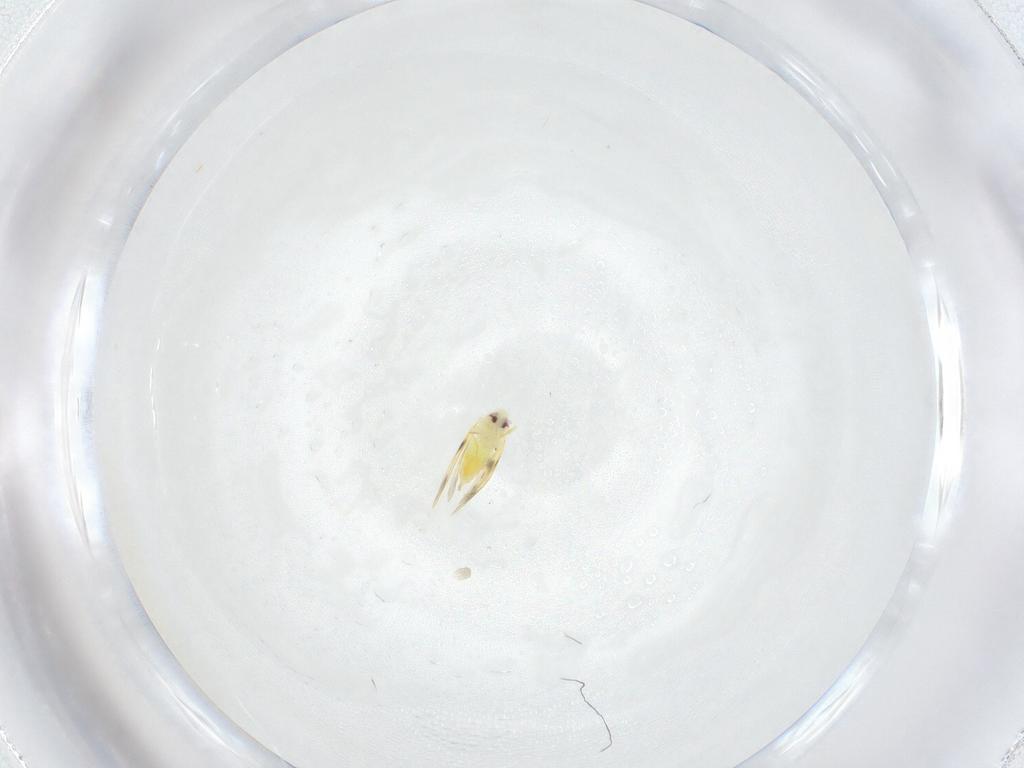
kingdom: Animalia
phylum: Arthropoda
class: Insecta
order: Hemiptera
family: Aleyrodidae
